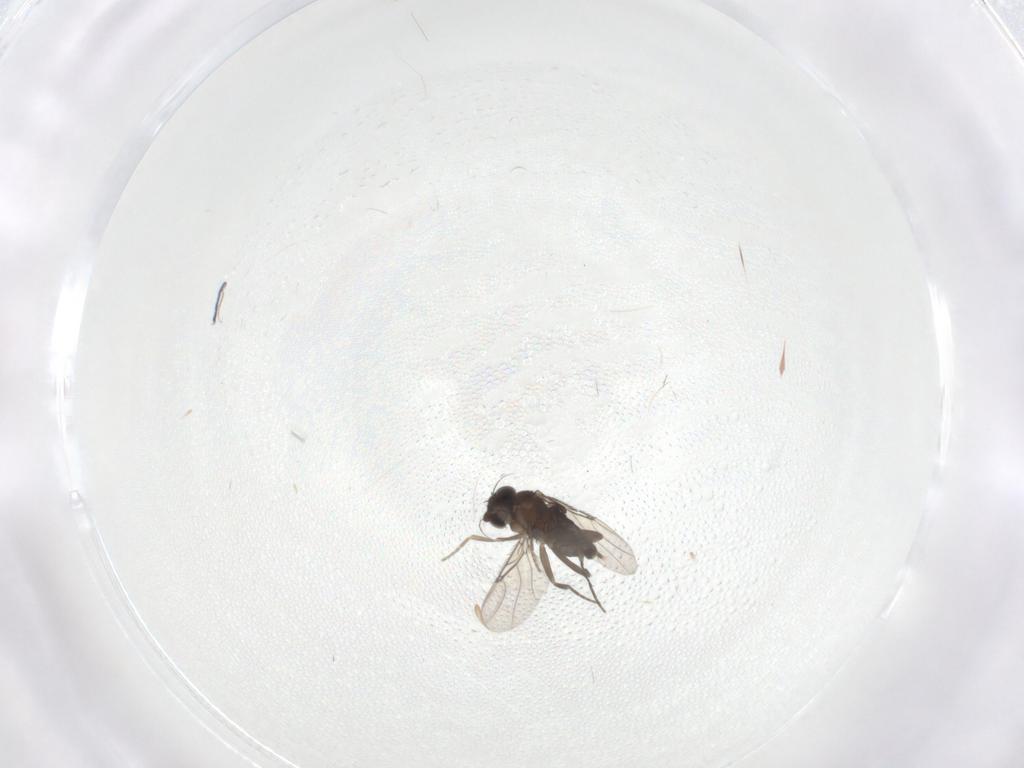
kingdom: Animalia
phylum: Arthropoda
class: Insecta
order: Diptera
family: Phoridae
